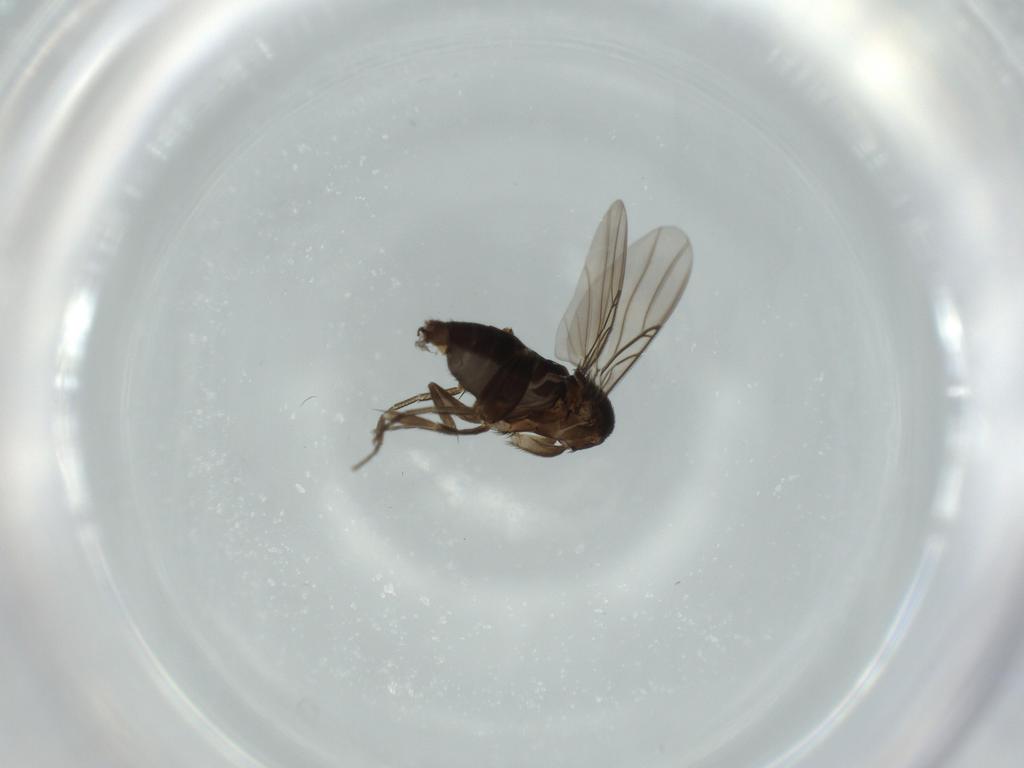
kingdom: Animalia
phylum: Arthropoda
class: Insecta
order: Diptera
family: Phoridae
